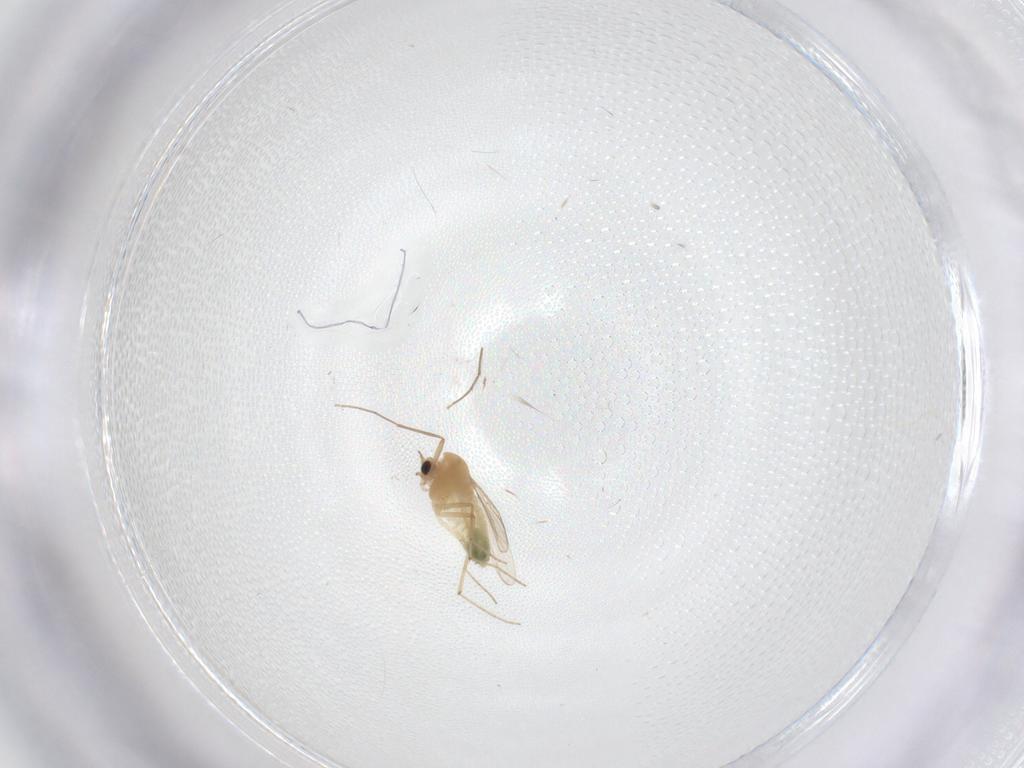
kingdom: Animalia
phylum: Arthropoda
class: Insecta
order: Diptera
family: Chironomidae
